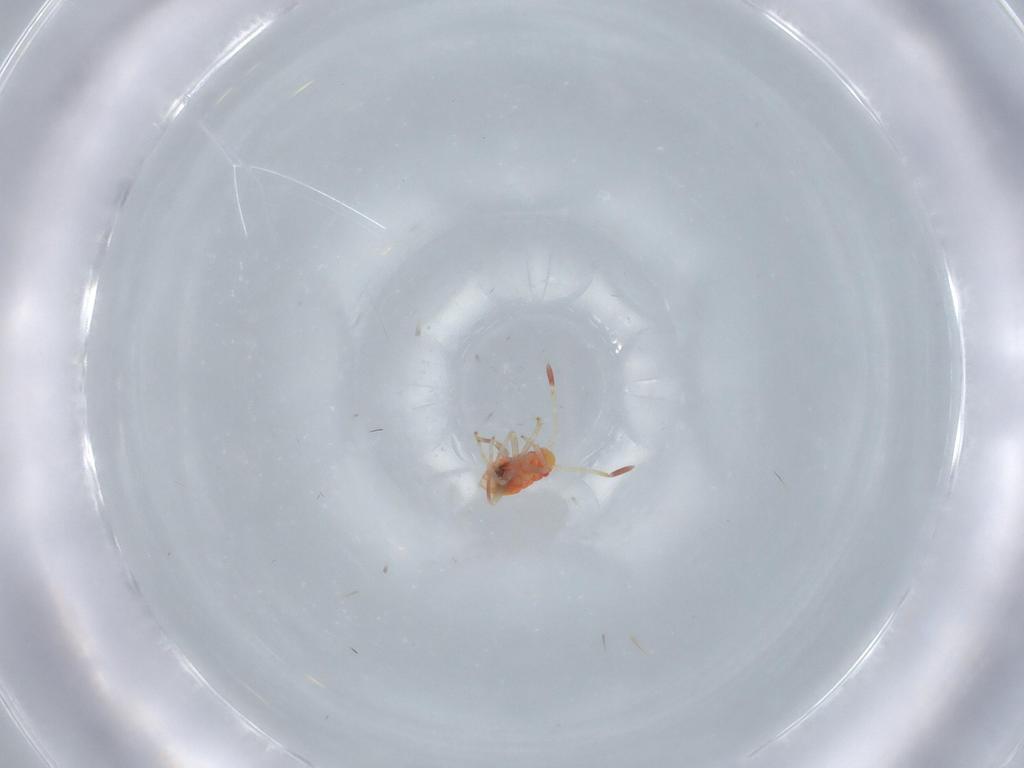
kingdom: Animalia
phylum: Arthropoda
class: Insecta
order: Hemiptera
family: Miridae
